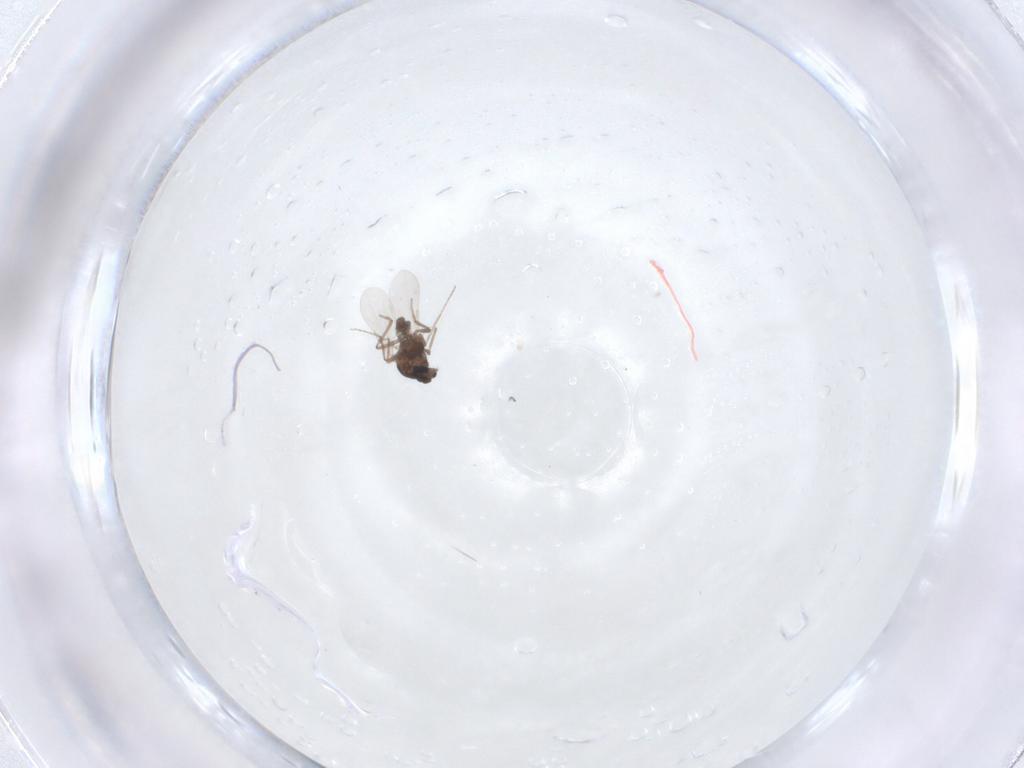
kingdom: Animalia
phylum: Arthropoda
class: Insecta
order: Diptera
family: Ceratopogonidae
